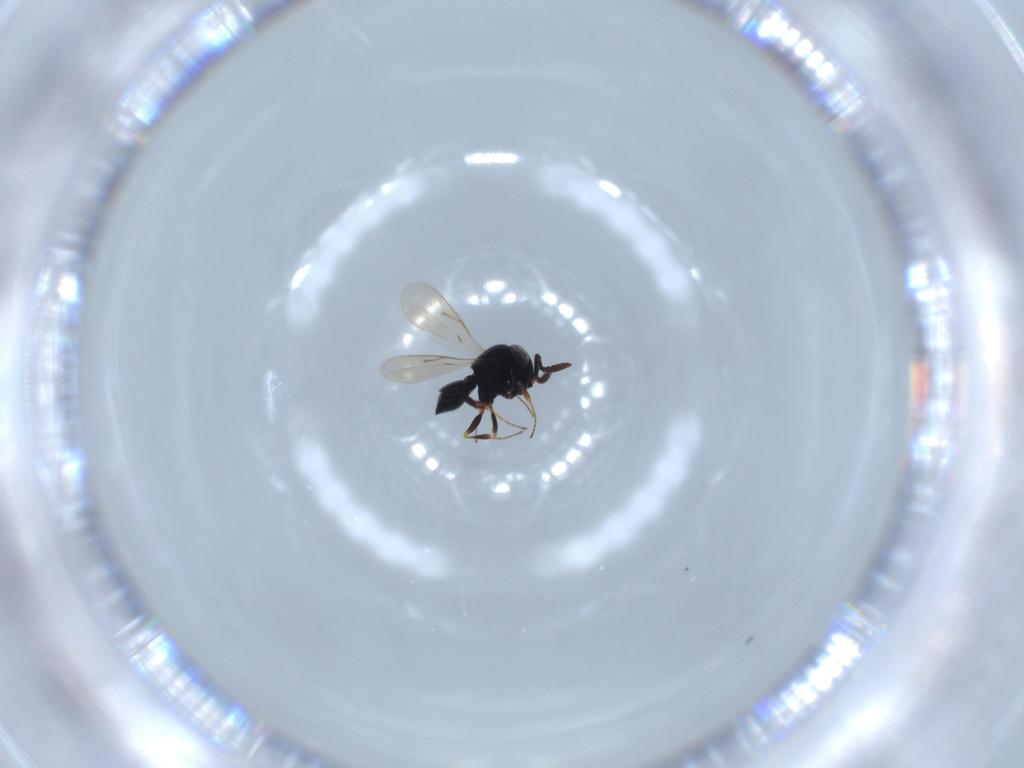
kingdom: Animalia
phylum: Arthropoda
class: Insecta
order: Hymenoptera
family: Scelionidae
